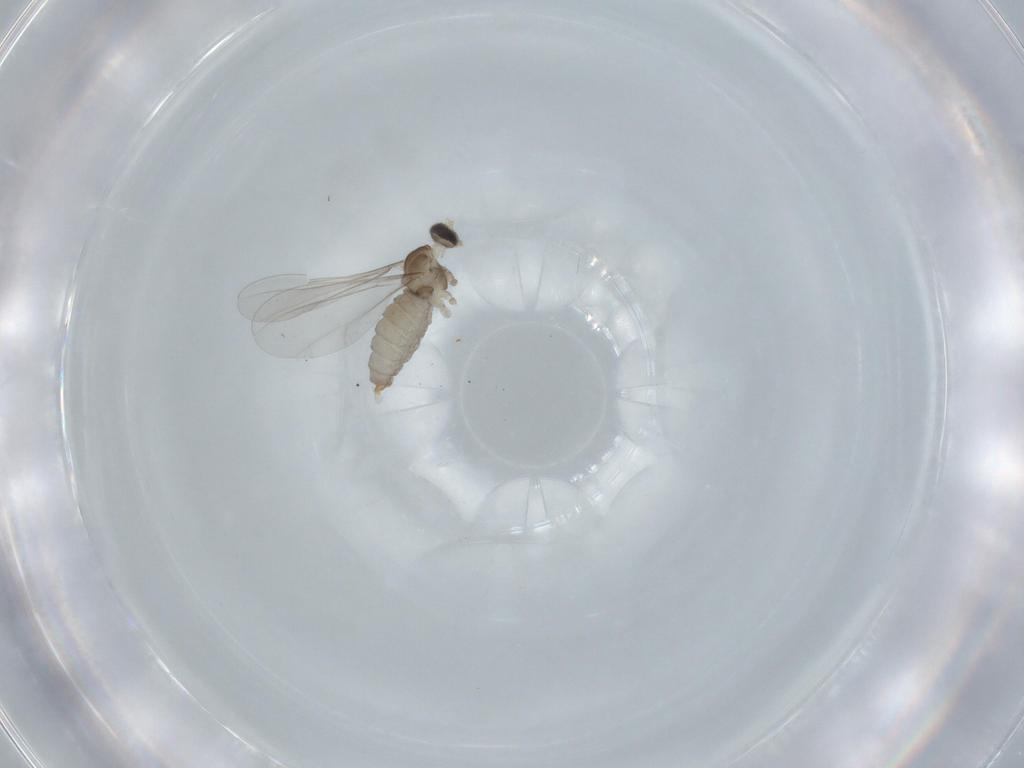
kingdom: Animalia
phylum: Arthropoda
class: Insecta
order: Diptera
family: Cecidomyiidae
